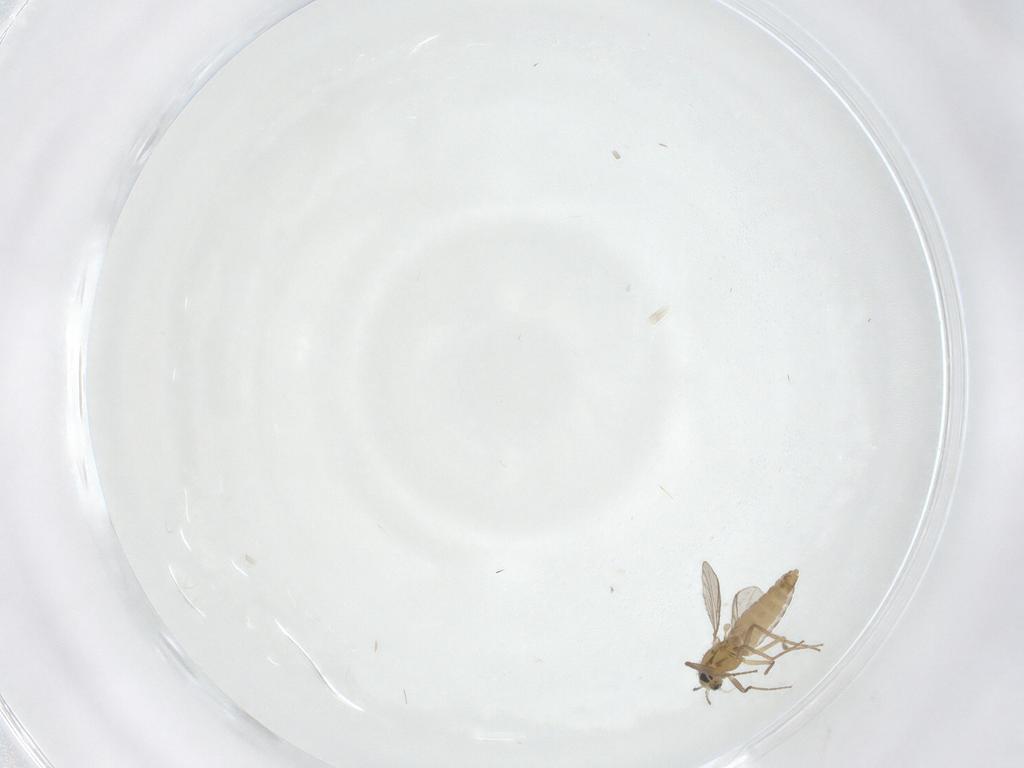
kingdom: Animalia
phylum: Arthropoda
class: Insecta
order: Diptera
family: Chironomidae
